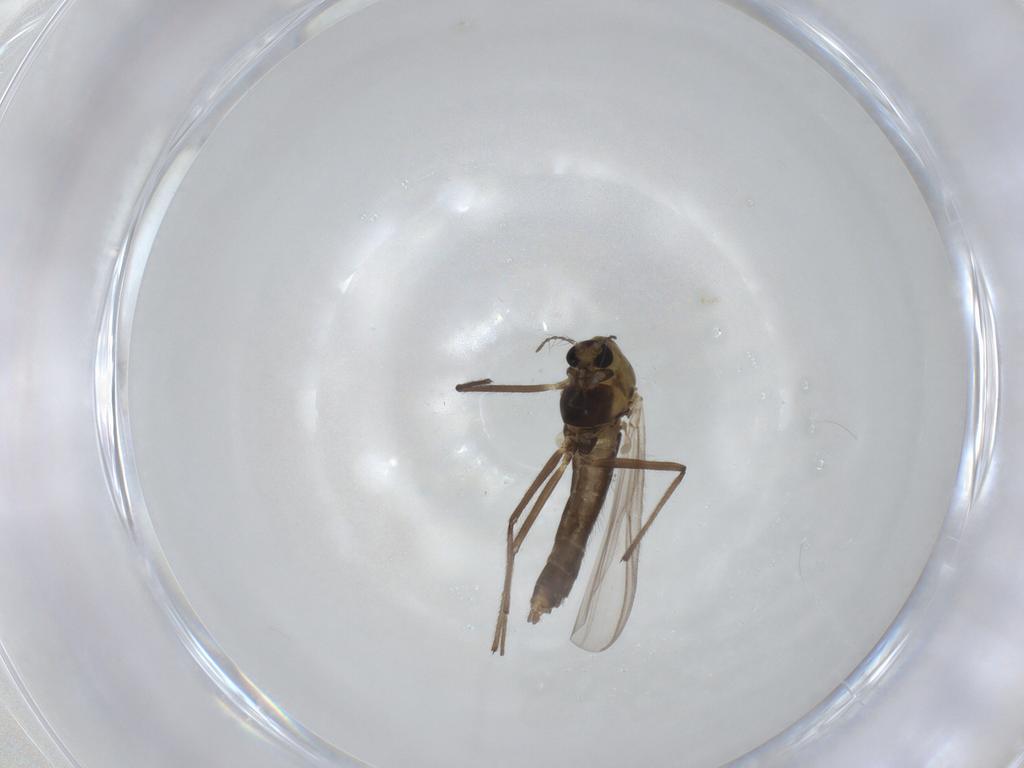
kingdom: Animalia
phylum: Arthropoda
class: Insecta
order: Diptera
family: Chironomidae
